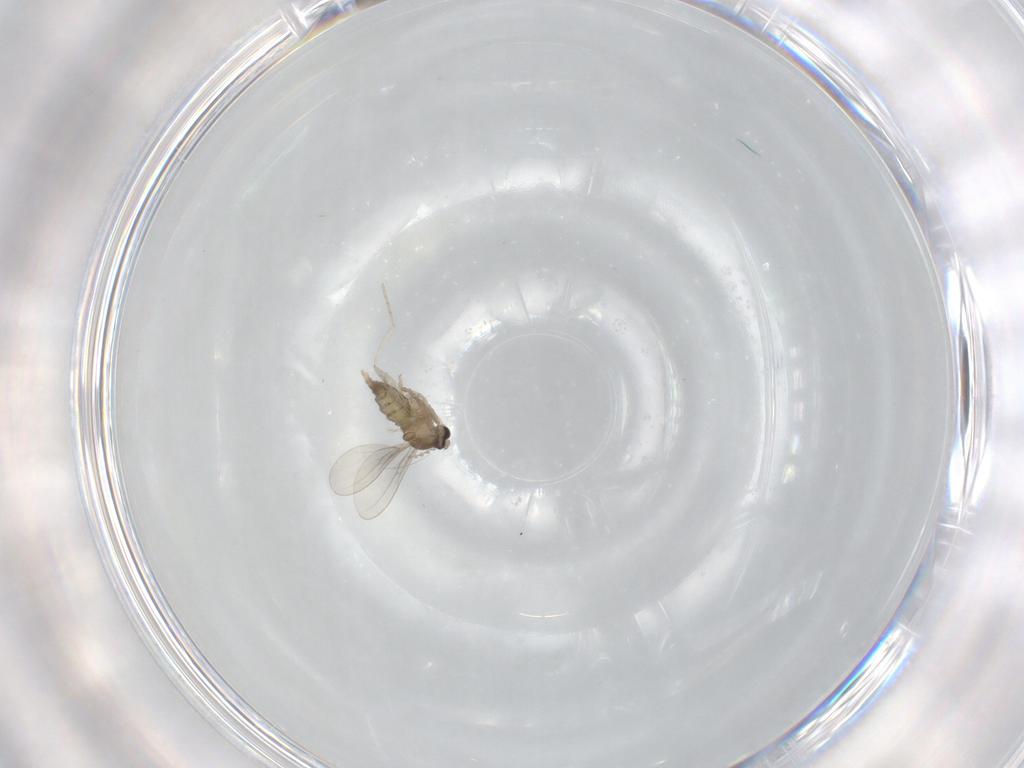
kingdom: Animalia
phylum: Arthropoda
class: Insecta
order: Diptera
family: Cecidomyiidae
